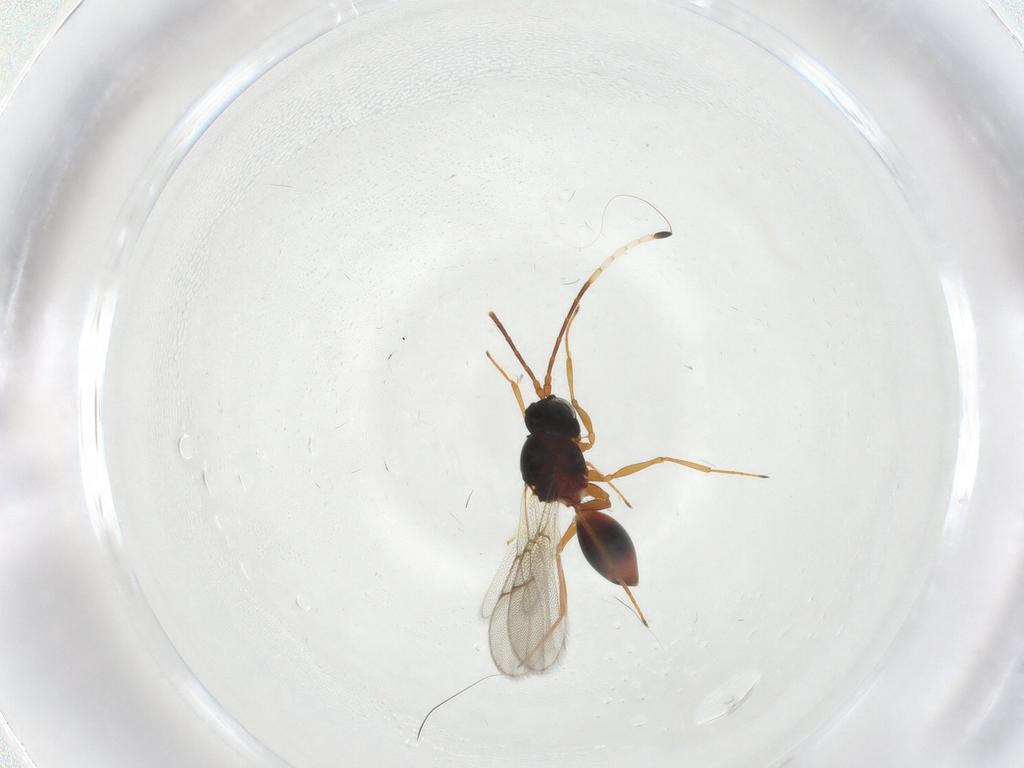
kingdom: Animalia
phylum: Arthropoda
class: Insecta
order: Hymenoptera
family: Figitidae
